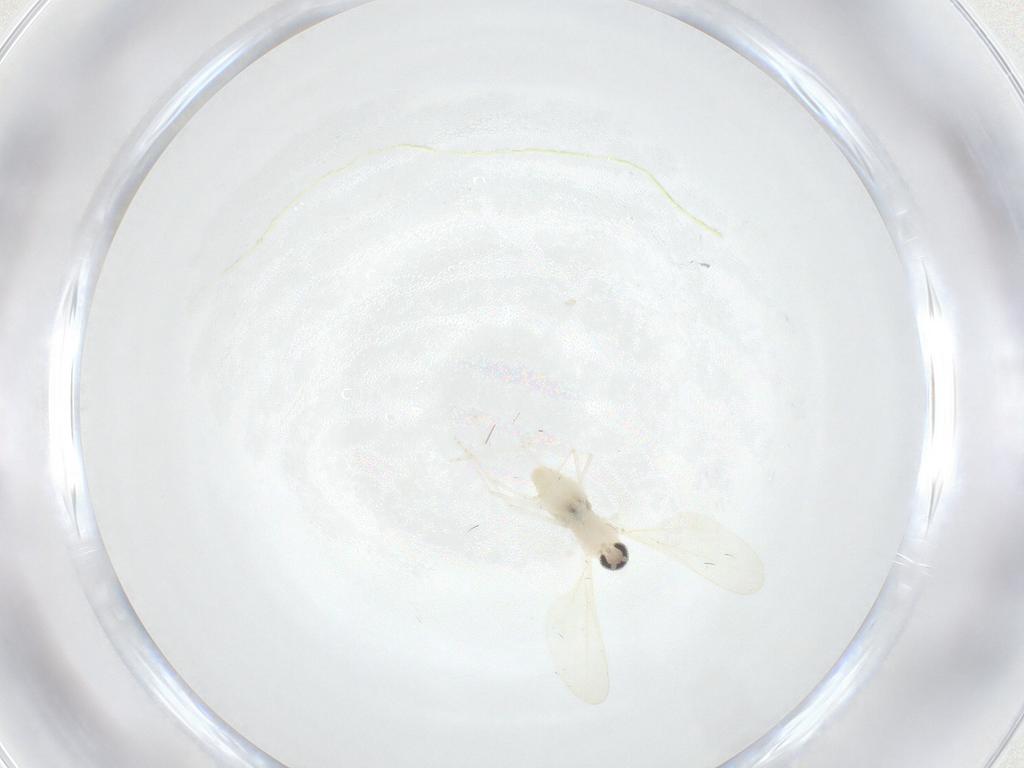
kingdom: Animalia
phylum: Arthropoda
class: Insecta
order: Diptera
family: Cecidomyiidae
